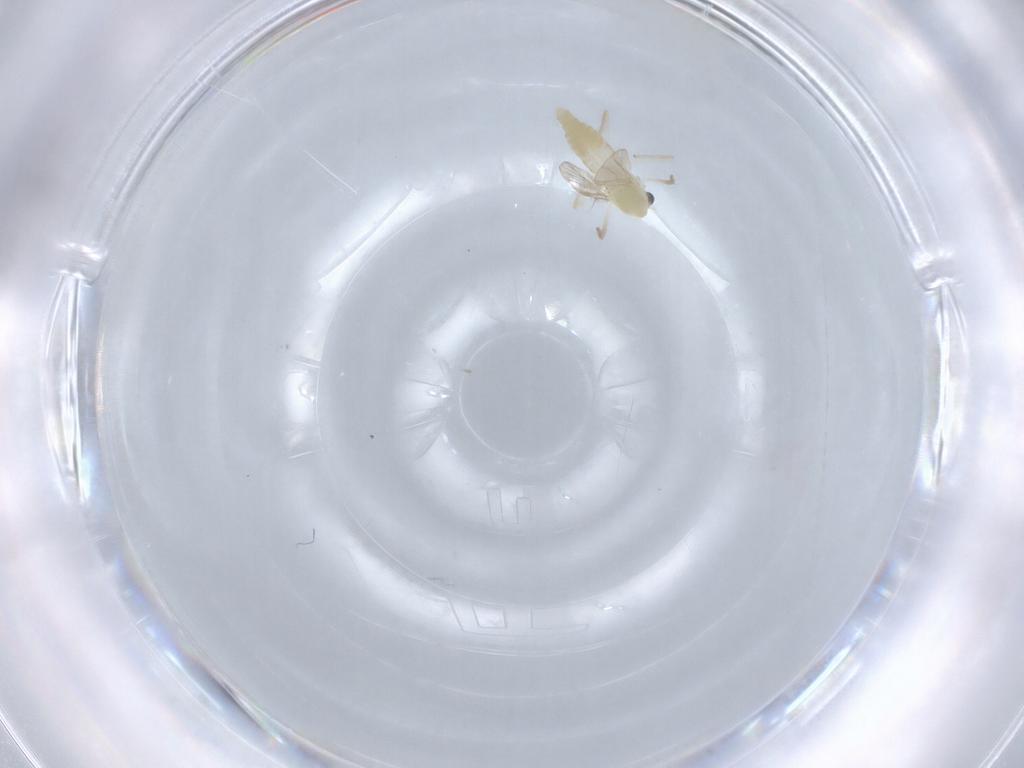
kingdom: Animalia
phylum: Arthropoda
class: Insecta
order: Diptera
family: Chironomidae
